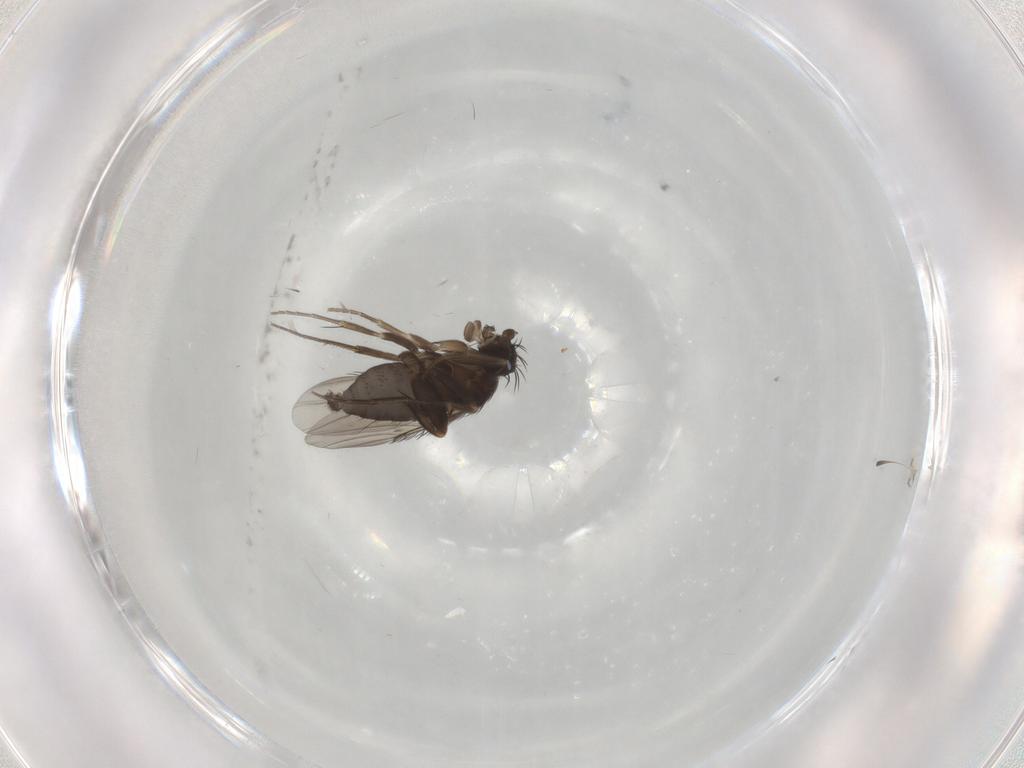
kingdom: Animalia
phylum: Arthropoda
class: Insecta
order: Diptera
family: Phoridae
